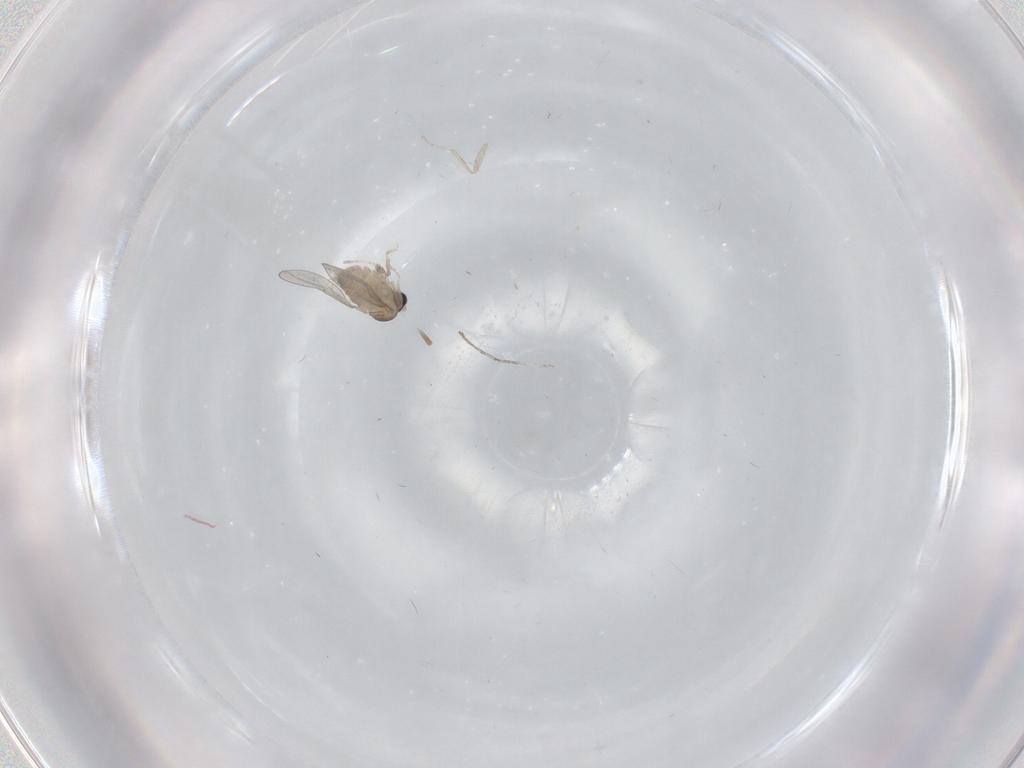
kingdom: Animalia
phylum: Arthropoda
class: Insecta
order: Diptera
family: Cecidomyiidae
